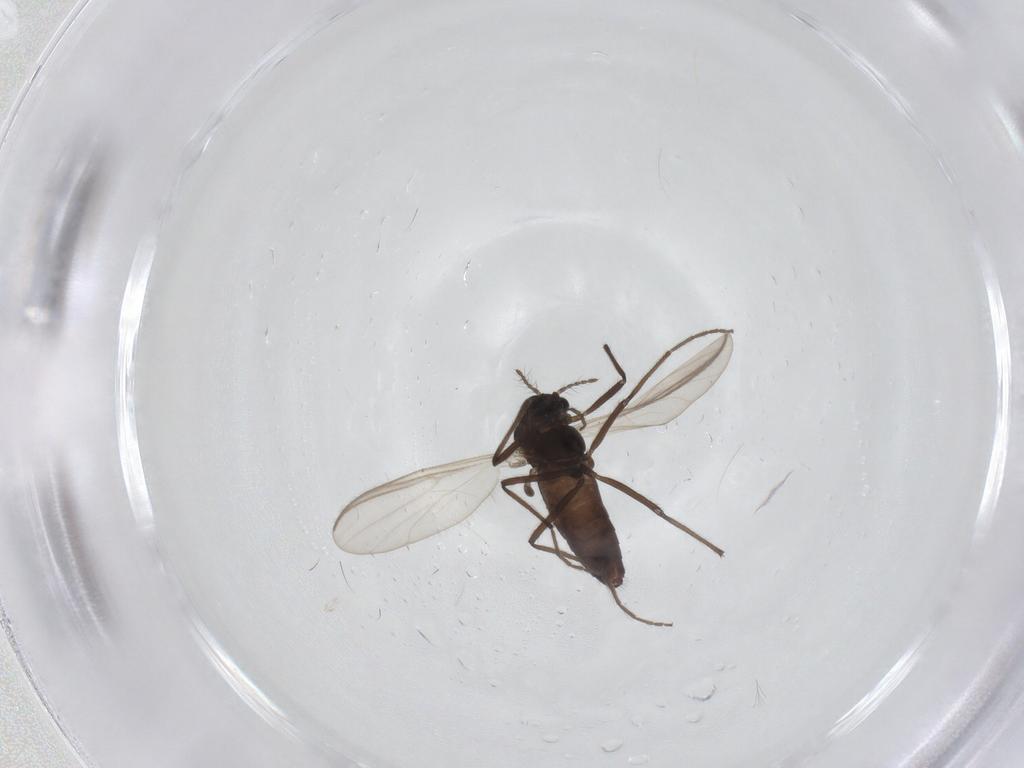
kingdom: Animalia
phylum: Arthropoda
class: Insecta
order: Diptera
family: Chironomidae
